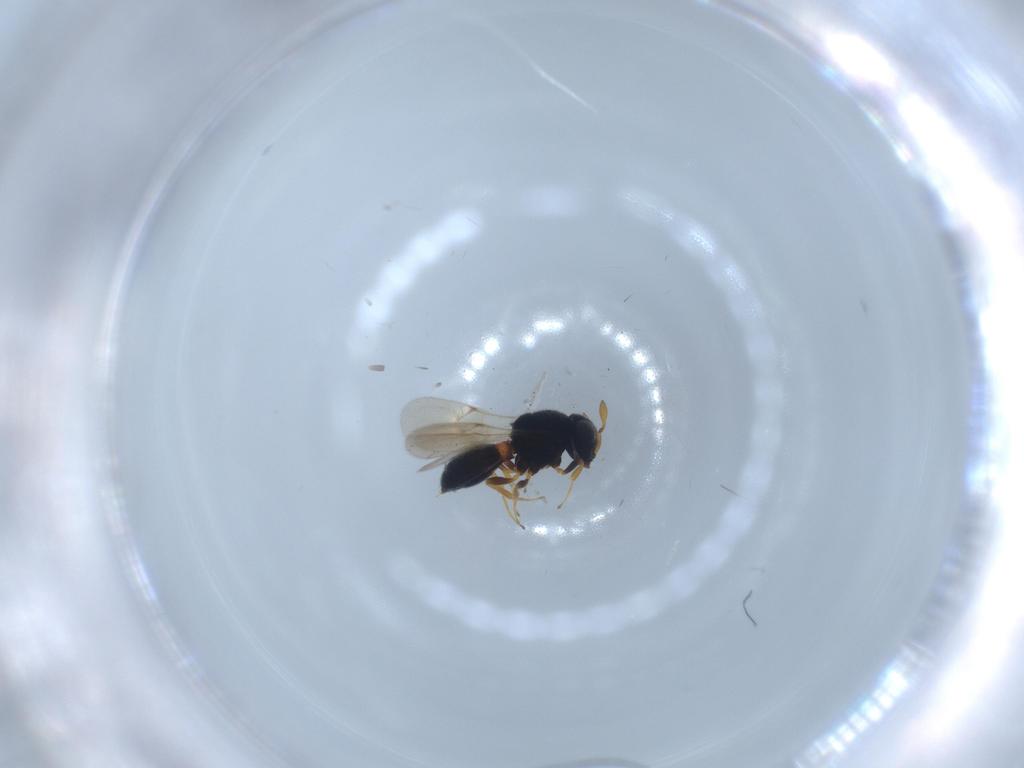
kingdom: Animalia
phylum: Arthropoda
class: Insecta
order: Hymenoptera
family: Scelionidae
